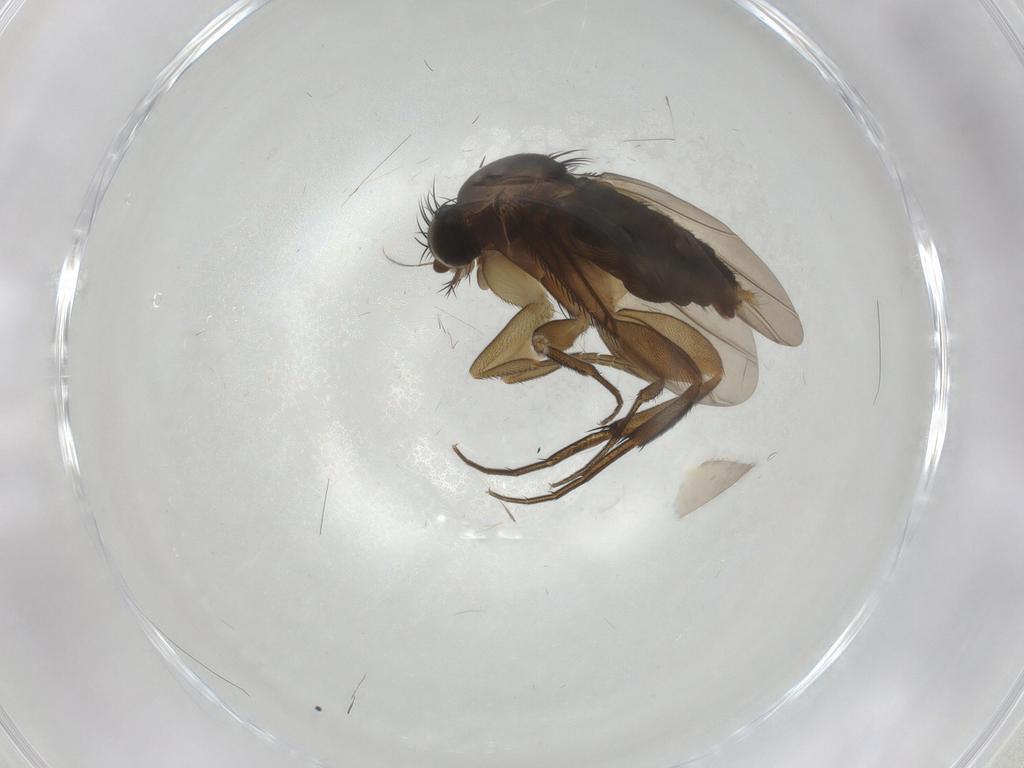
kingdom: Animalia
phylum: Arthropoda
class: Insecta
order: Diptera
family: Phoridae
